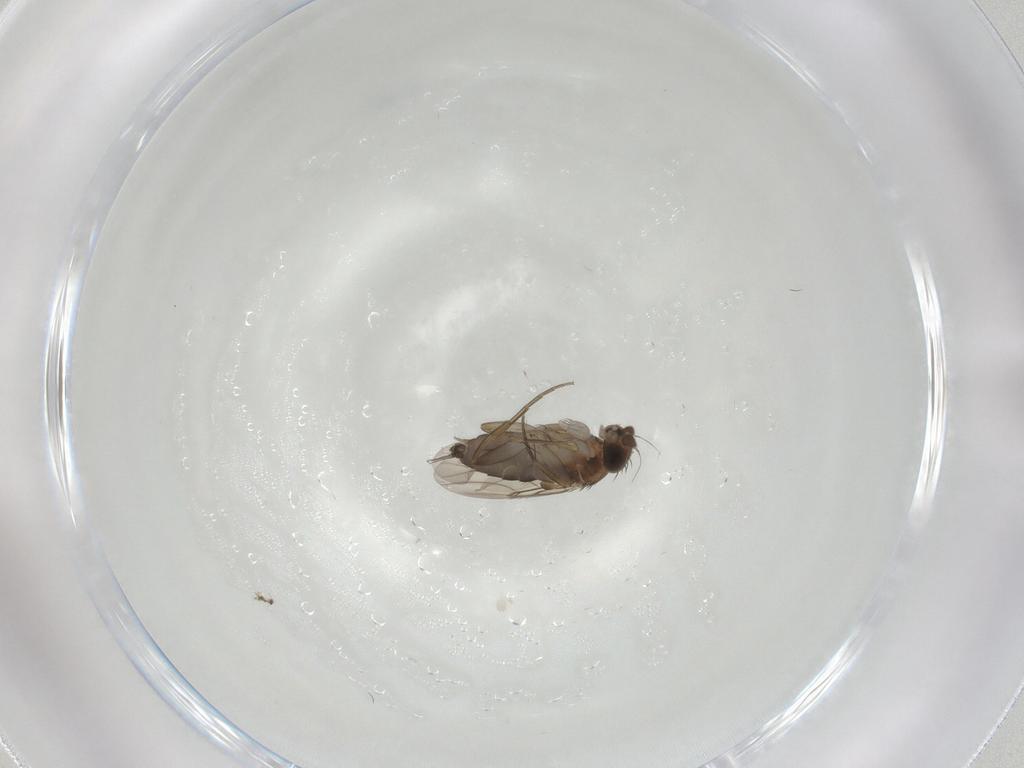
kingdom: Animalia
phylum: Arthropoda
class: Insecta
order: Diptera
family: Phoridae
